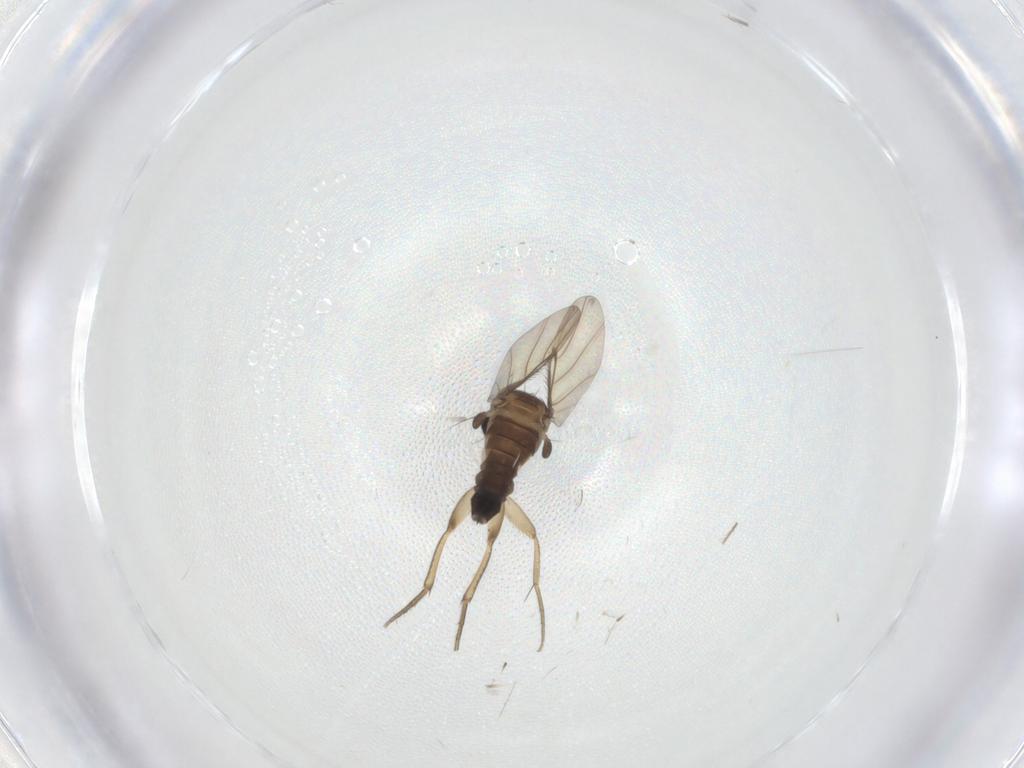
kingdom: Animalia
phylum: Arthropoda
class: Insecta
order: Diptera
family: Phoridae
